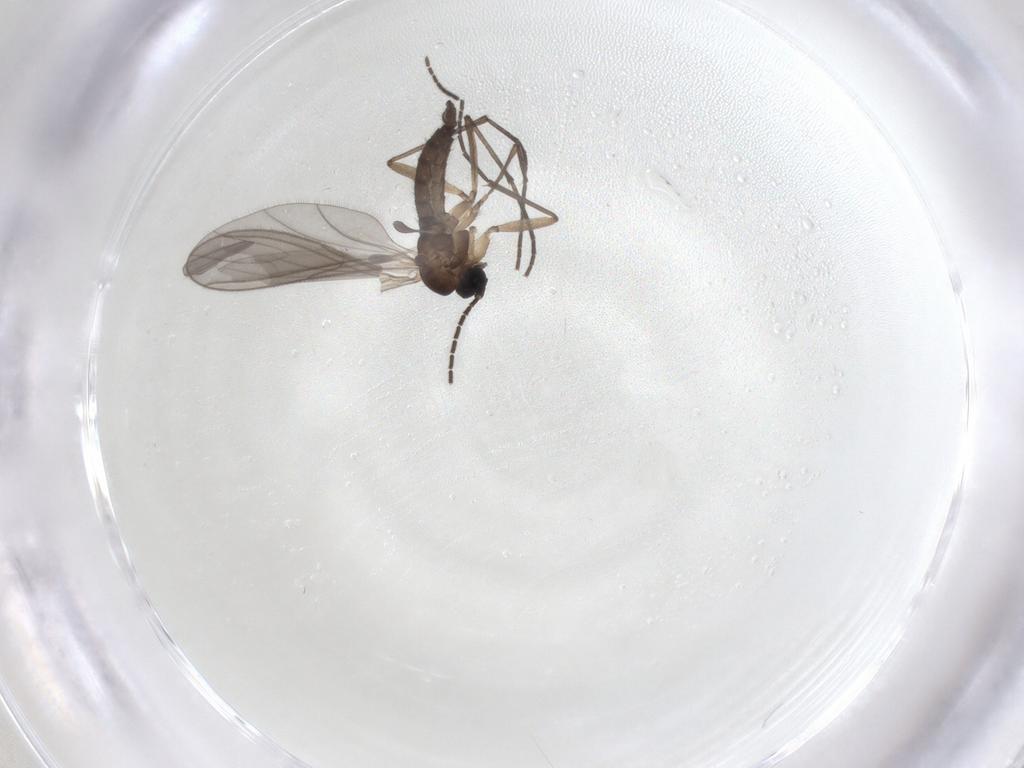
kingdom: Animalia
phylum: Arthropoda
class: Insecta
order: Diptera
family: Sciaridae
